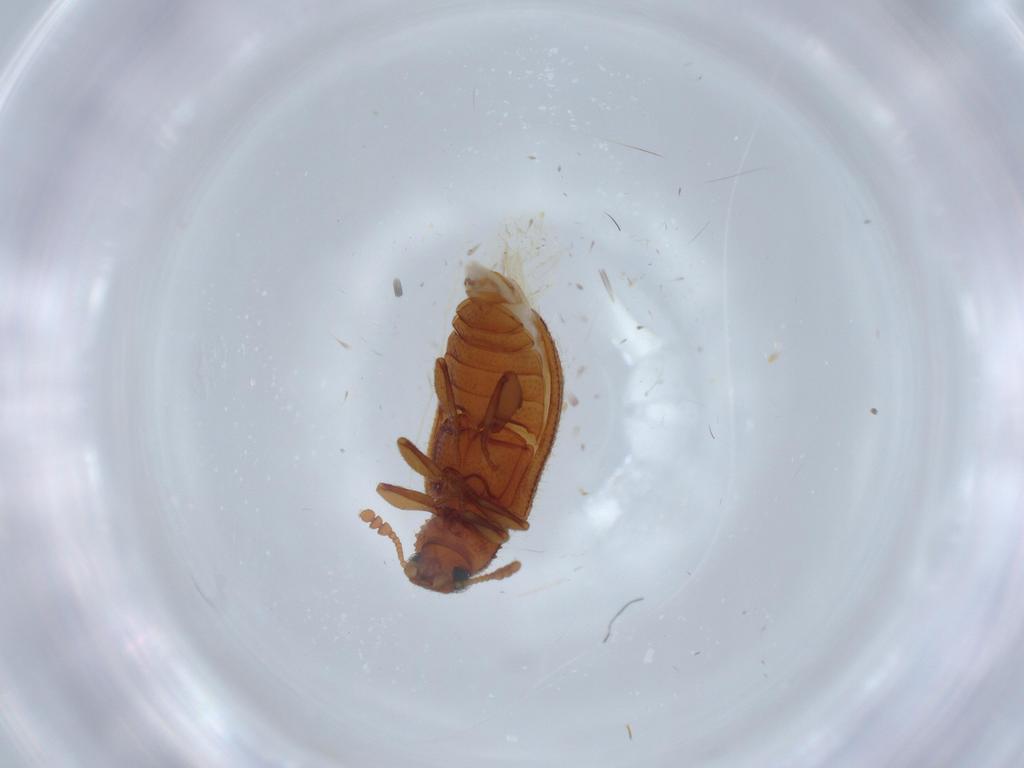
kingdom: Animalia
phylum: Arthropoda
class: Insecta
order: Coleoptera
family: Tenebrionidae
